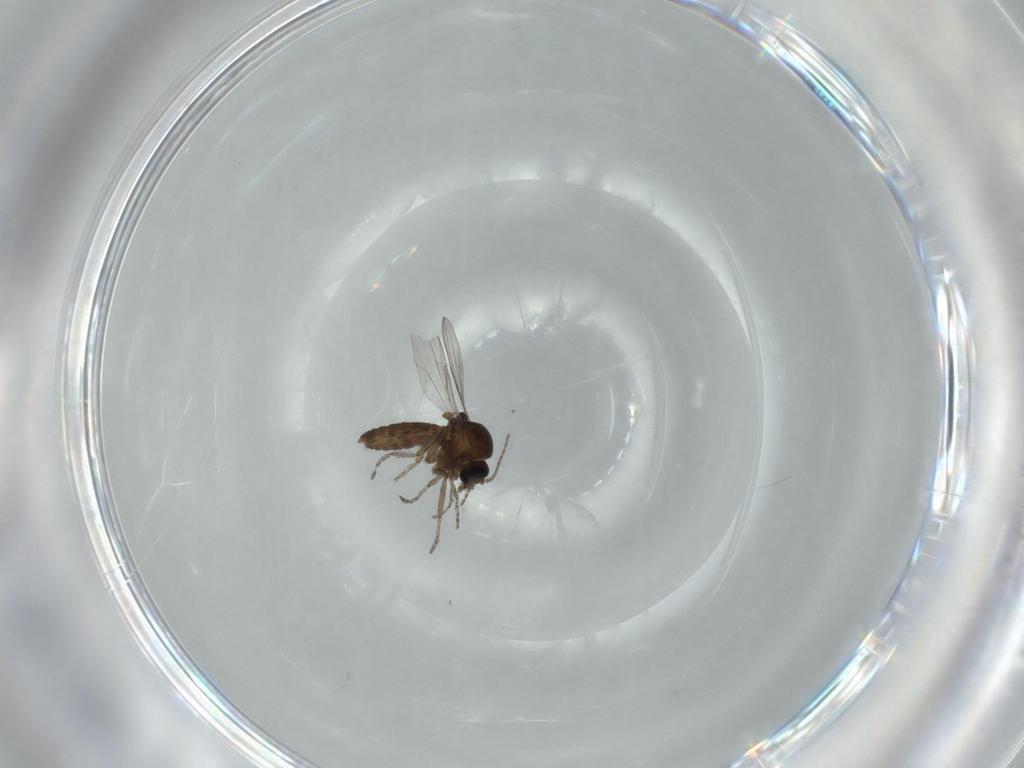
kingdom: Animalia
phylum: Arthropoda
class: Insecta
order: Diptera
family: Ceratopogonidae
